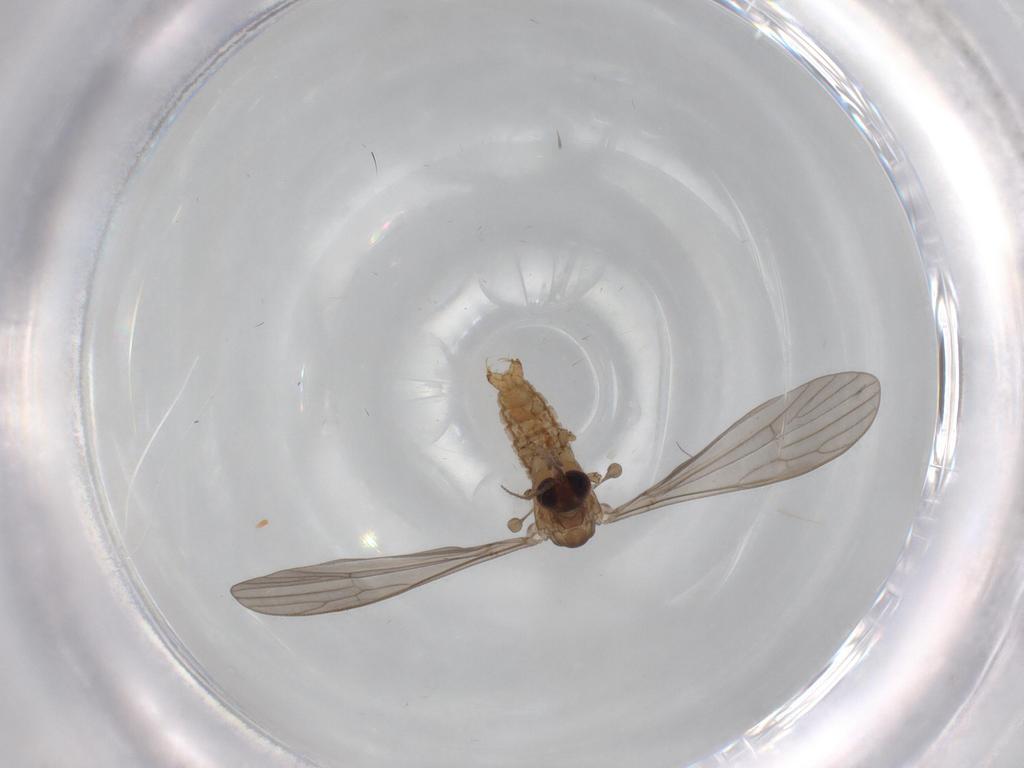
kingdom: Animalia
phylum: Arthropoda
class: Insecta
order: Diptera
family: Limoniidae
